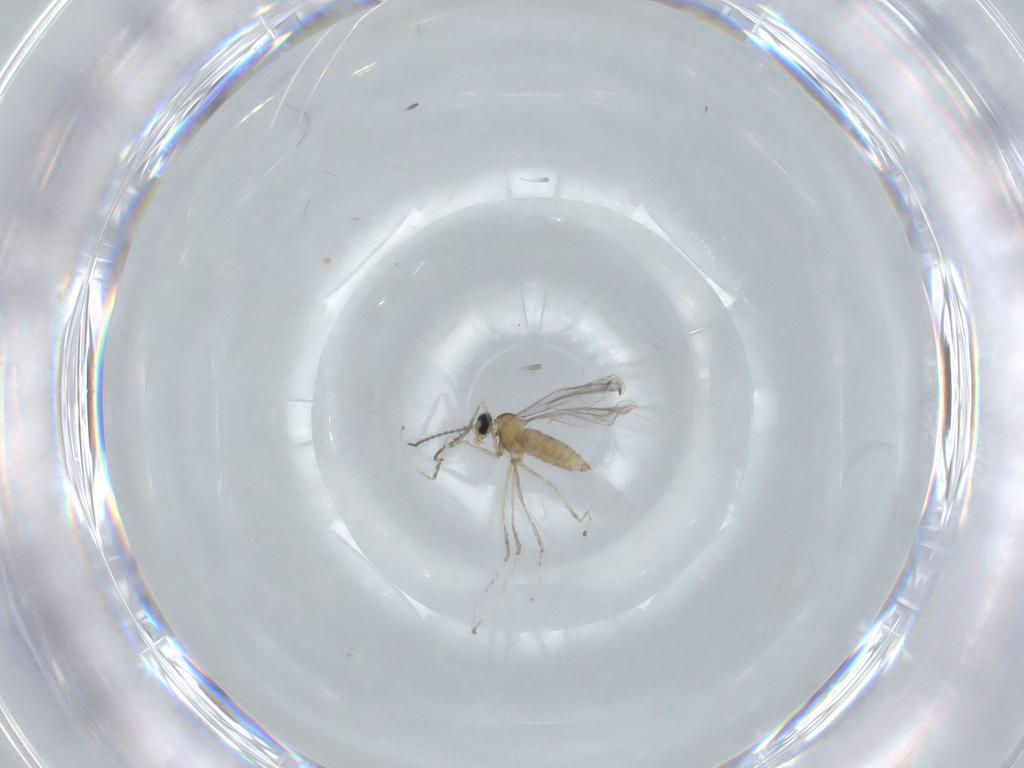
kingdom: Animalia
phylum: Arthropoda
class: Insecta
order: Diptera
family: Cecidomyiidae
